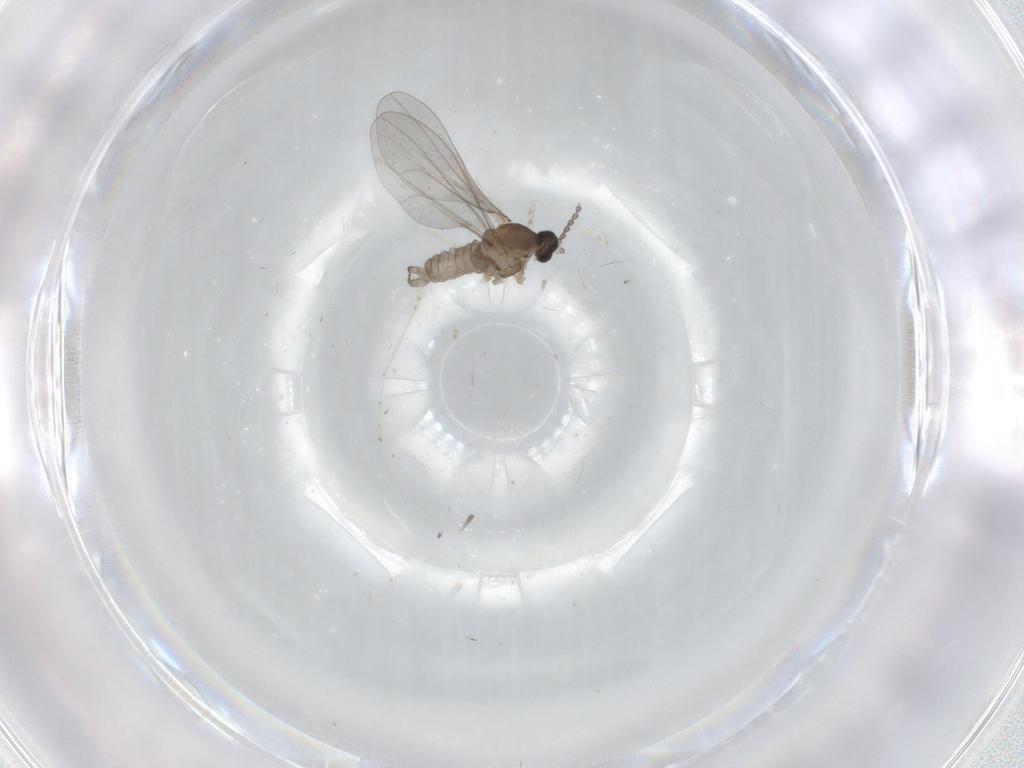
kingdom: Animalia
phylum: Arthropoda
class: Insecta
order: Diptera
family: Cecidomyiidae
